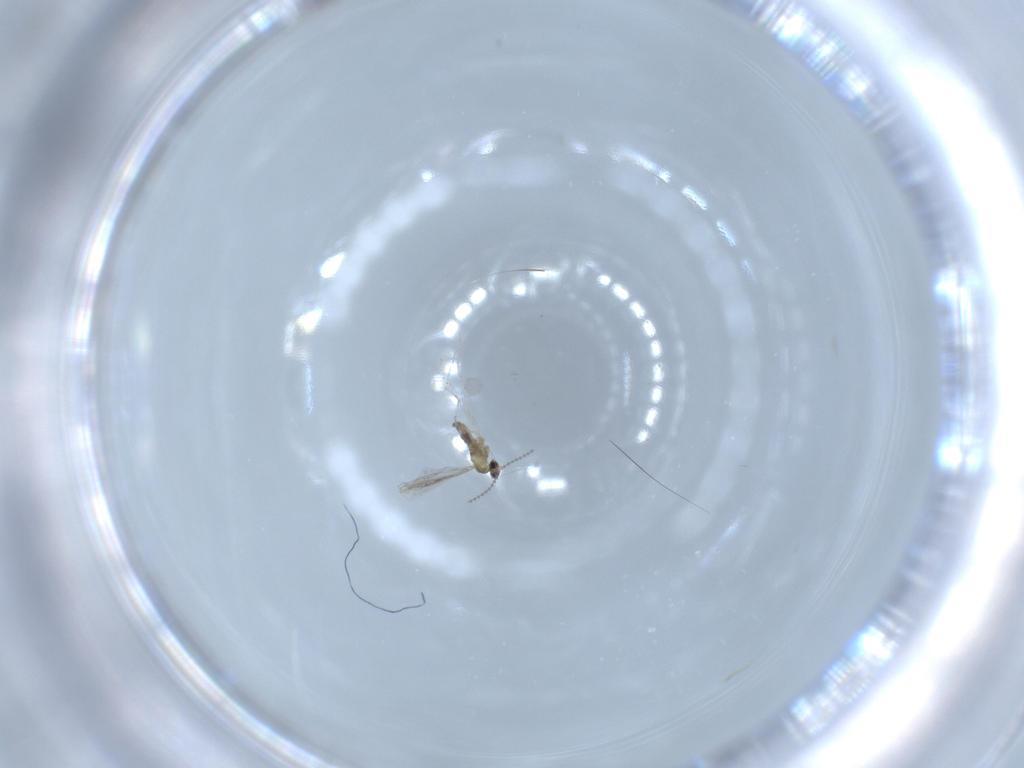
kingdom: Animalia
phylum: Arthropoda
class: Insecta
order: Diptera
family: Cecidomyiidae
